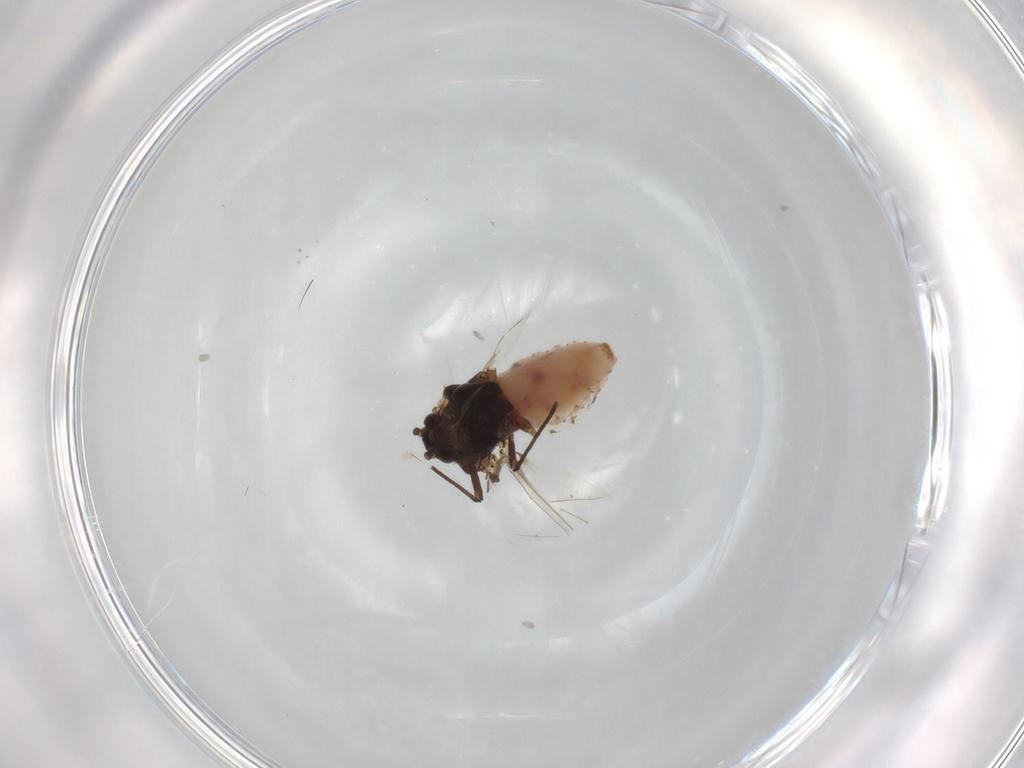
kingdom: Animalia
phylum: Arthropoda
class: Insecta
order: Hemiptera
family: Aphididae
